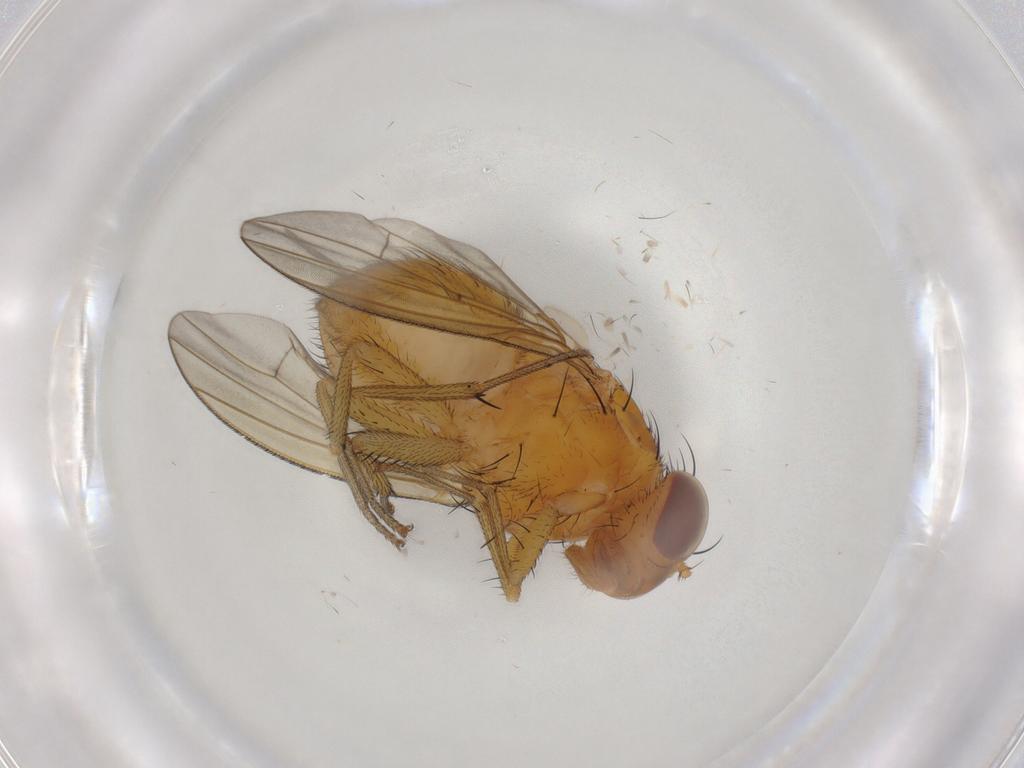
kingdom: Animalia
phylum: Arthropoda
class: Insecta
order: Diptera
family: Lauxaniidae
